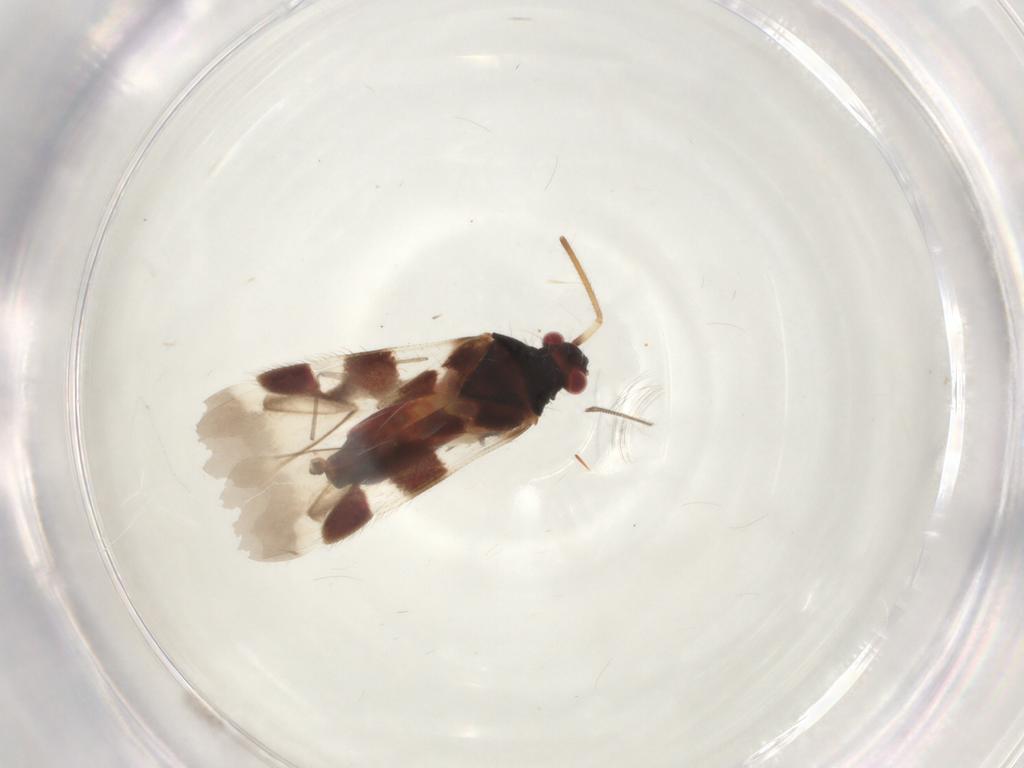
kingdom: Animalia
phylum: Arthropoda
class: Insecta
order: Hemiptera
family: Miridae
